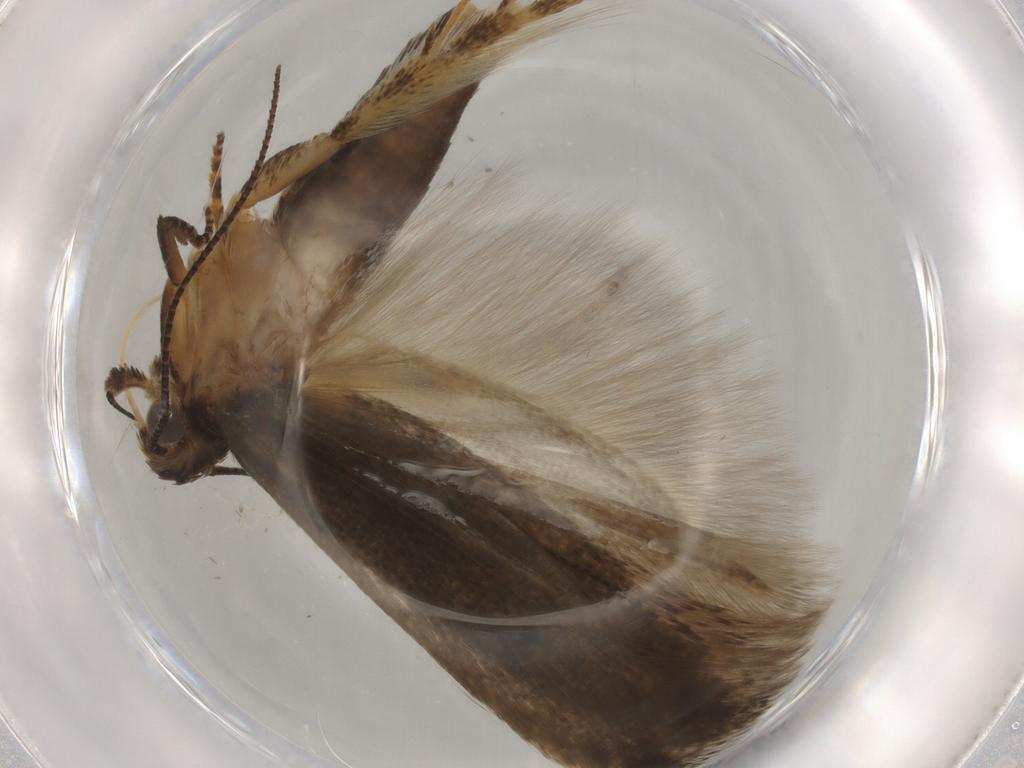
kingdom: Animalia
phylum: Arthropoda
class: Insecta
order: Lepidoptera
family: Gelechiidae
